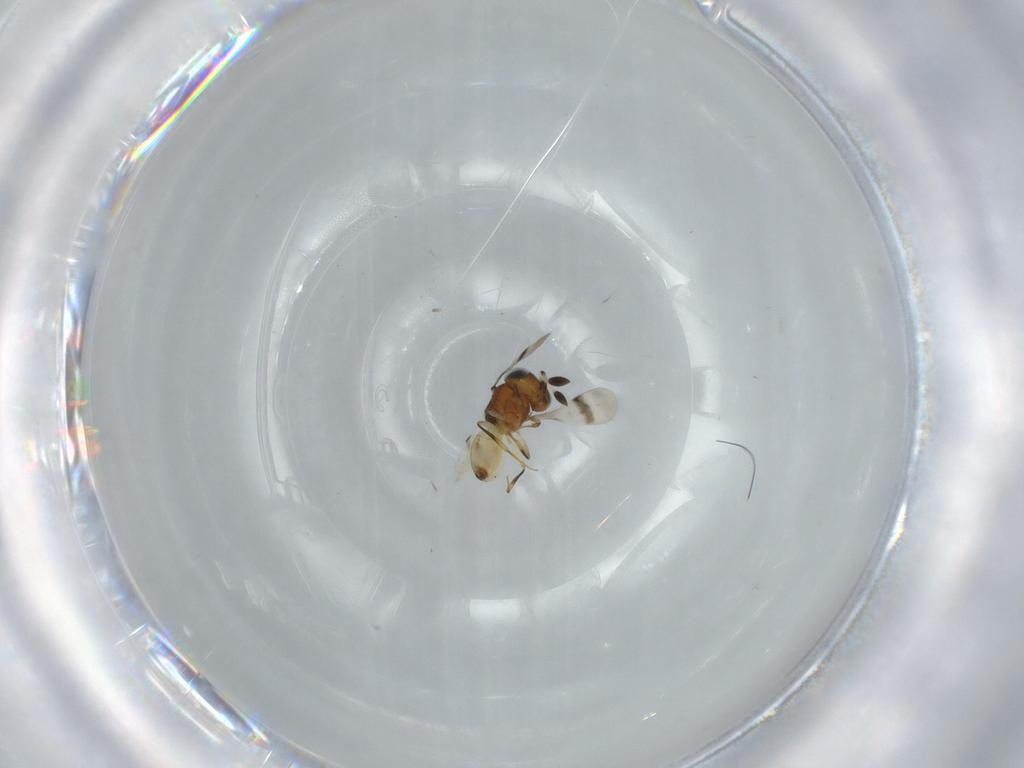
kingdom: Animalia
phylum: Arthropoda
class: Arachnida
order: Araneae
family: Pholcidae
